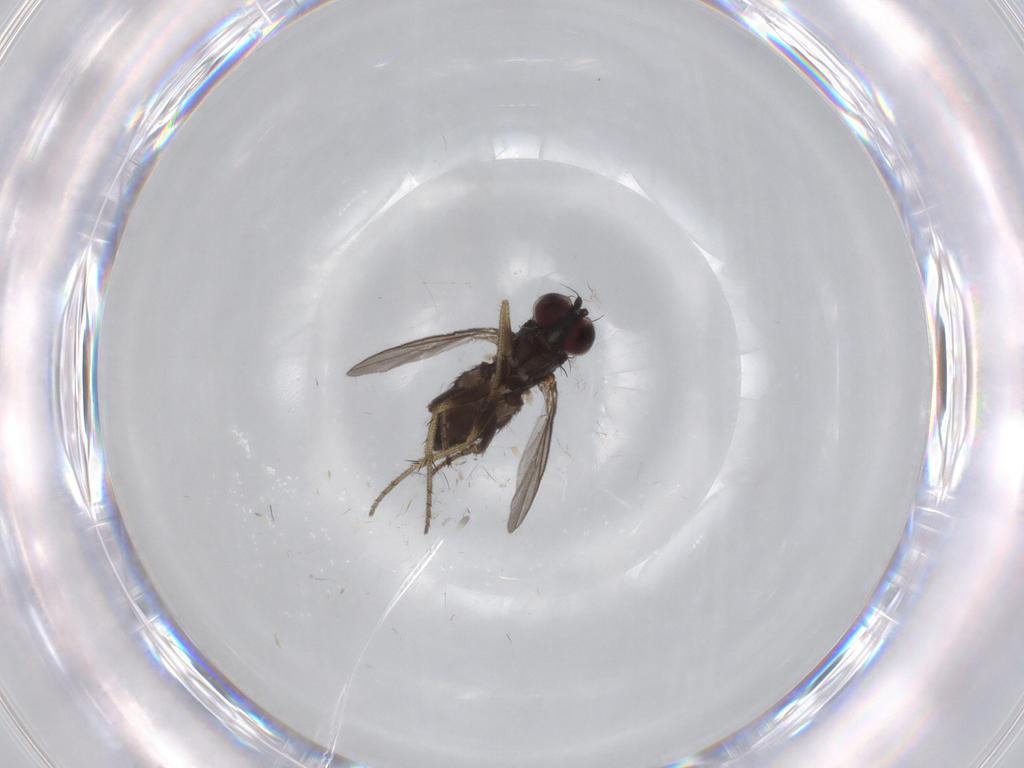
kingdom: Animalia
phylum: Arthropoda
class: Insecta
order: Diptera
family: Dolichopodidae
